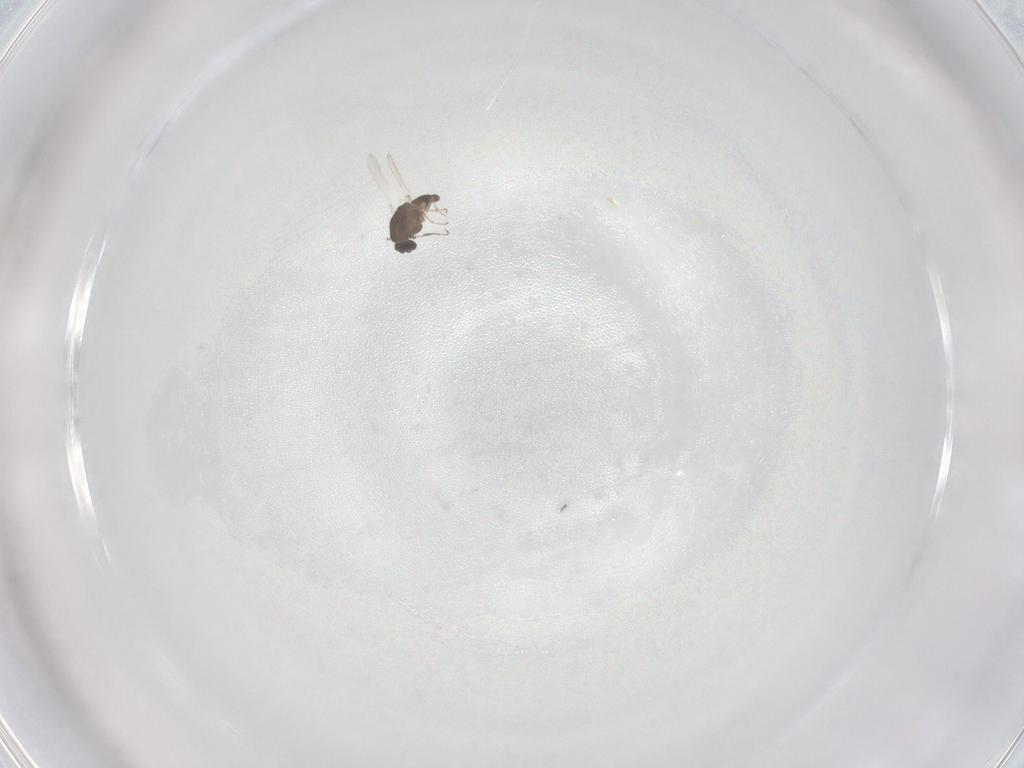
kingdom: Animalia
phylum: Arthropoda
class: Insecta
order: Diptera
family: Chironomidae
